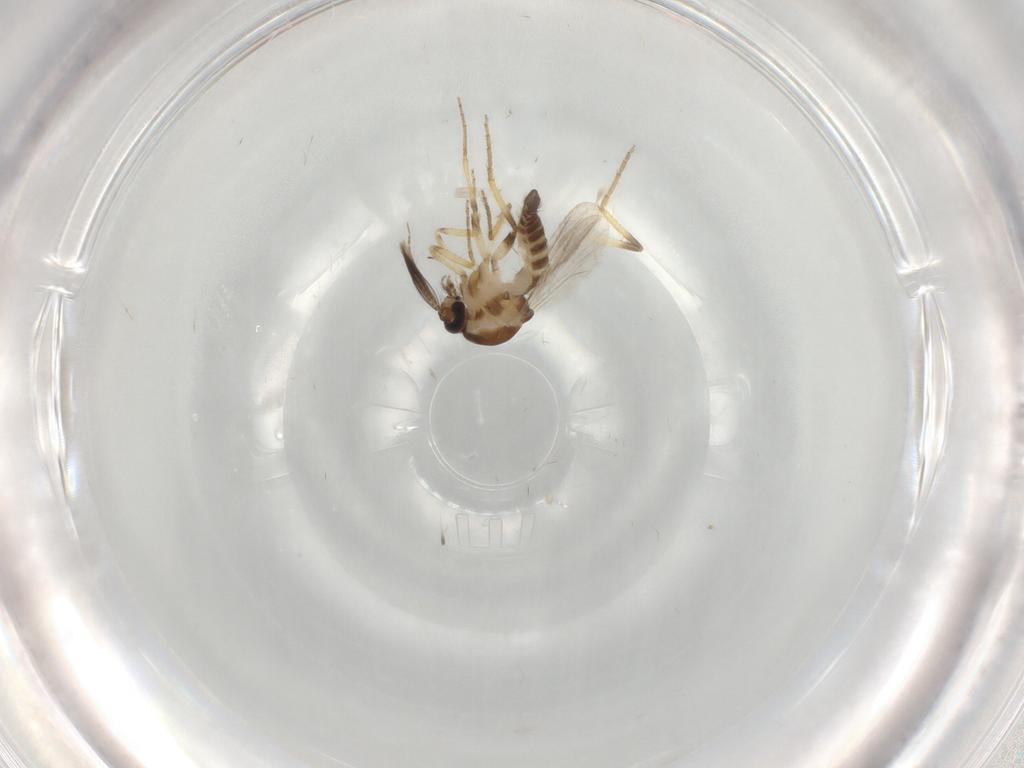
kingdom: Animalia
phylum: Arthropoda
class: Insecta
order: Diptera
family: Ceratopogonidae
